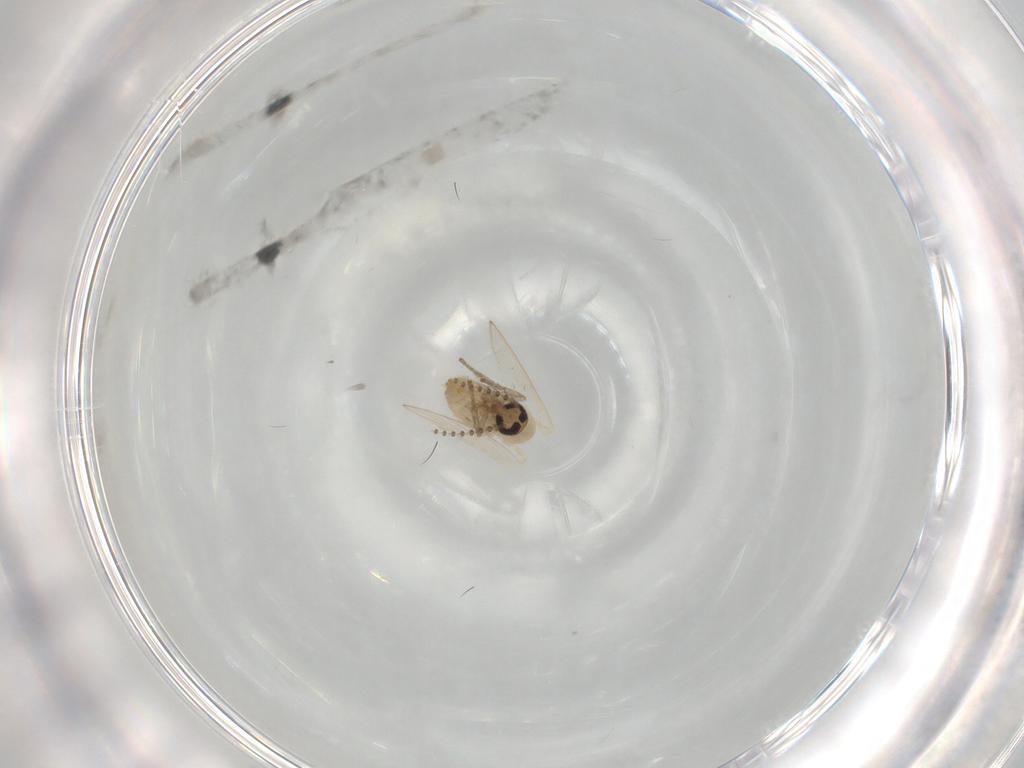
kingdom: Animalia
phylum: Arthropoda
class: Insecta
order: Diptera
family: Psychodidae
